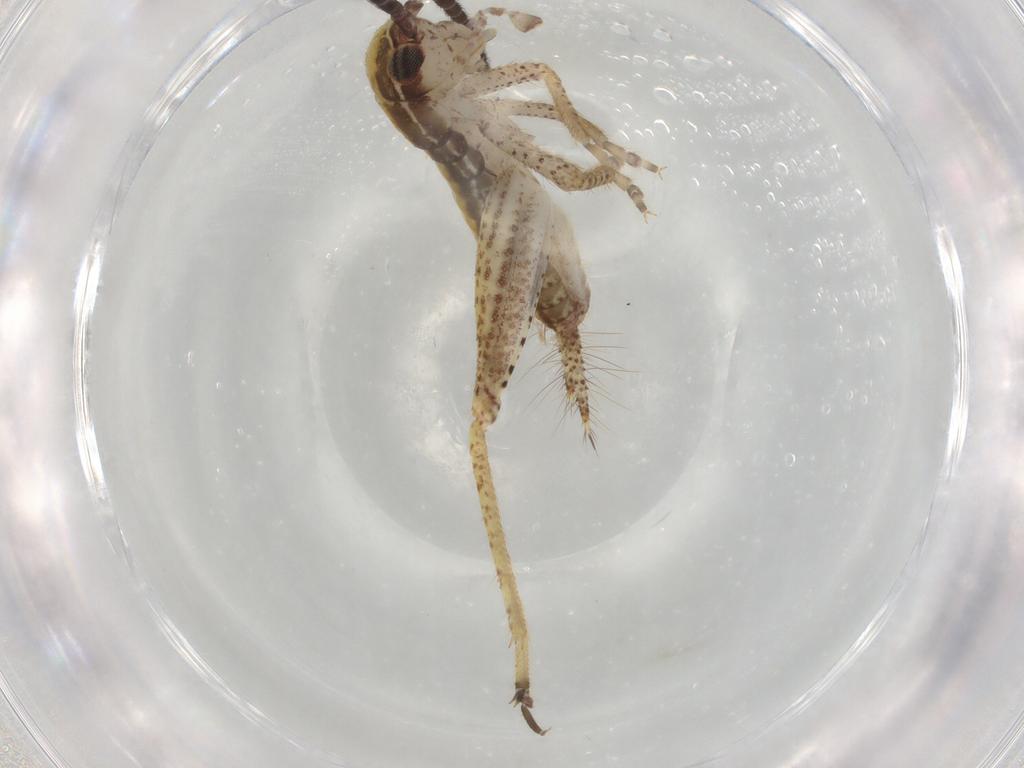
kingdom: Animalia
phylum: Arthropoda
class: Insecta
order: Orthoptera
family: Gryllidae
